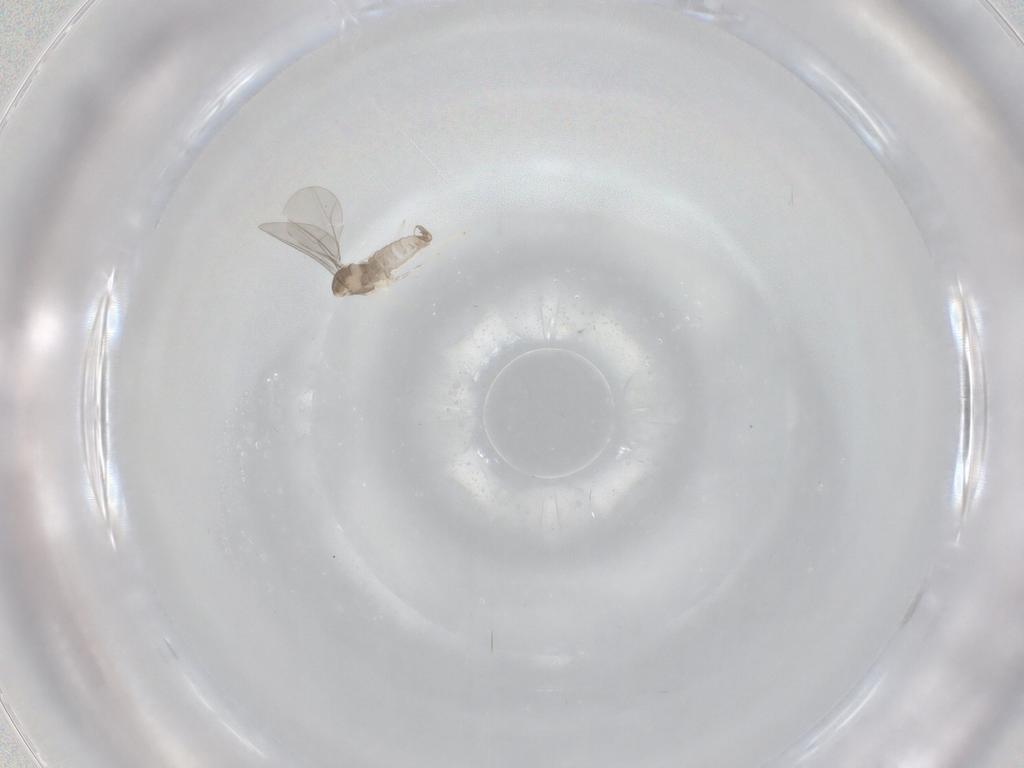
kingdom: Animalia
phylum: Arthropoda
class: Insecta
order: Diptera
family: Cecidomyiidae
